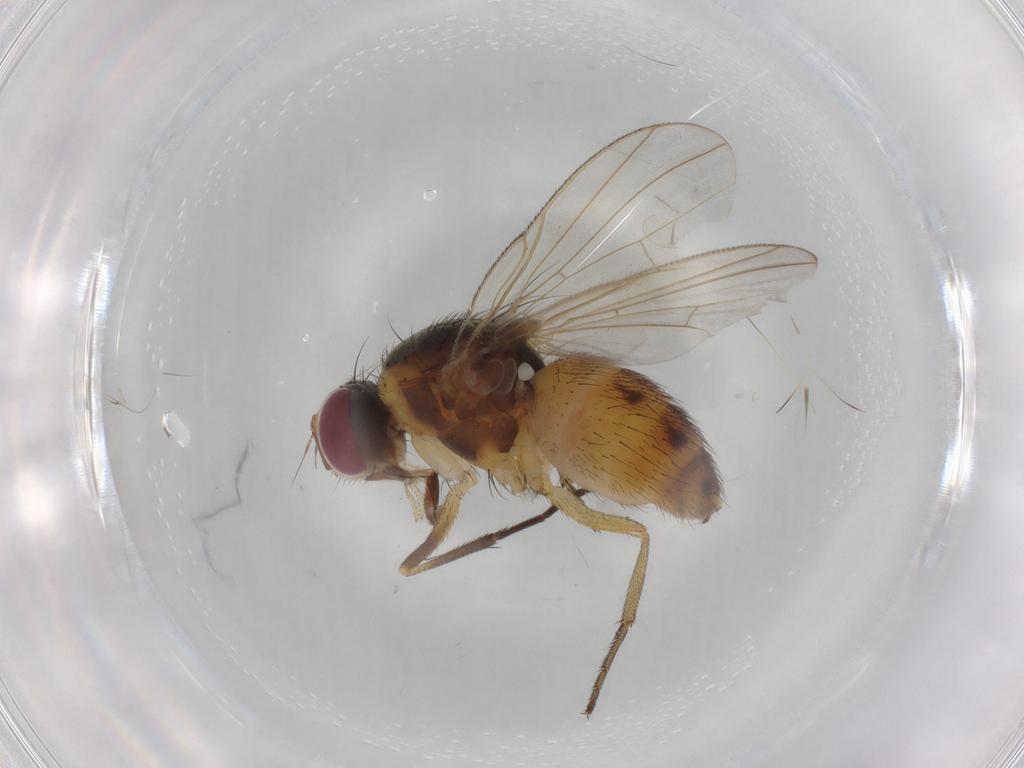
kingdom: Animalia
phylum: Arthropoda
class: Insecta
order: Diptera
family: Muscidae
